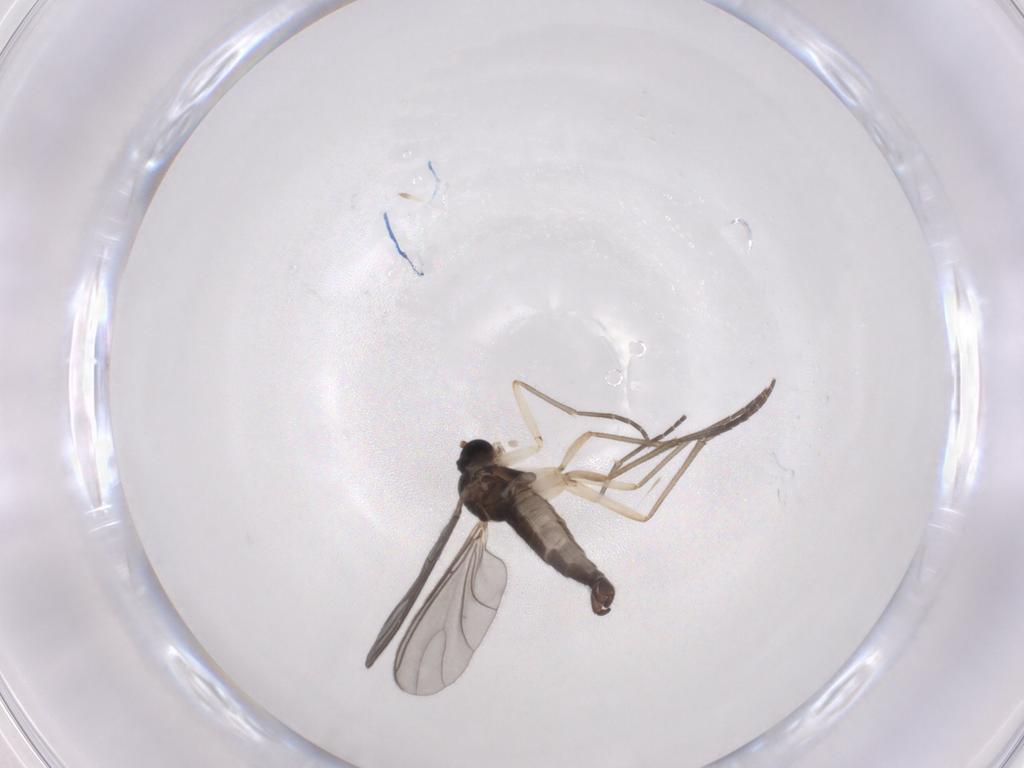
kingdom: Animalia
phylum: Arthropoda
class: Insecta
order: Diptera
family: Sciaridae
